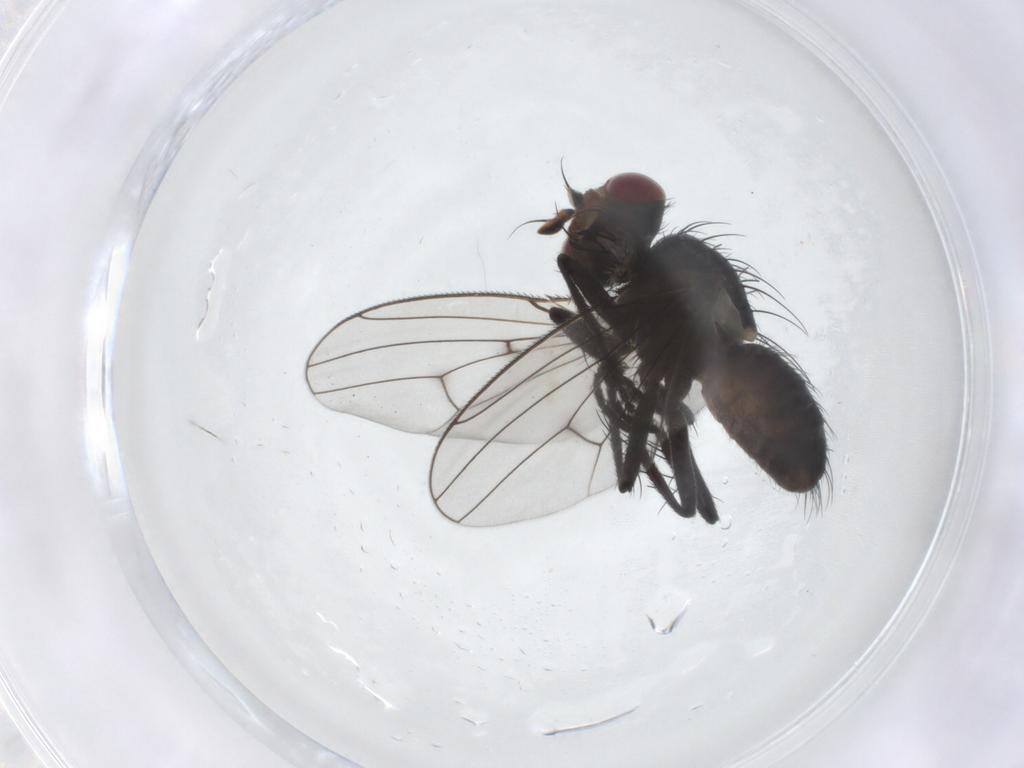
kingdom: Animalia
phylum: Arthropoda
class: Insecta
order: Diptera
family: Muscidae
